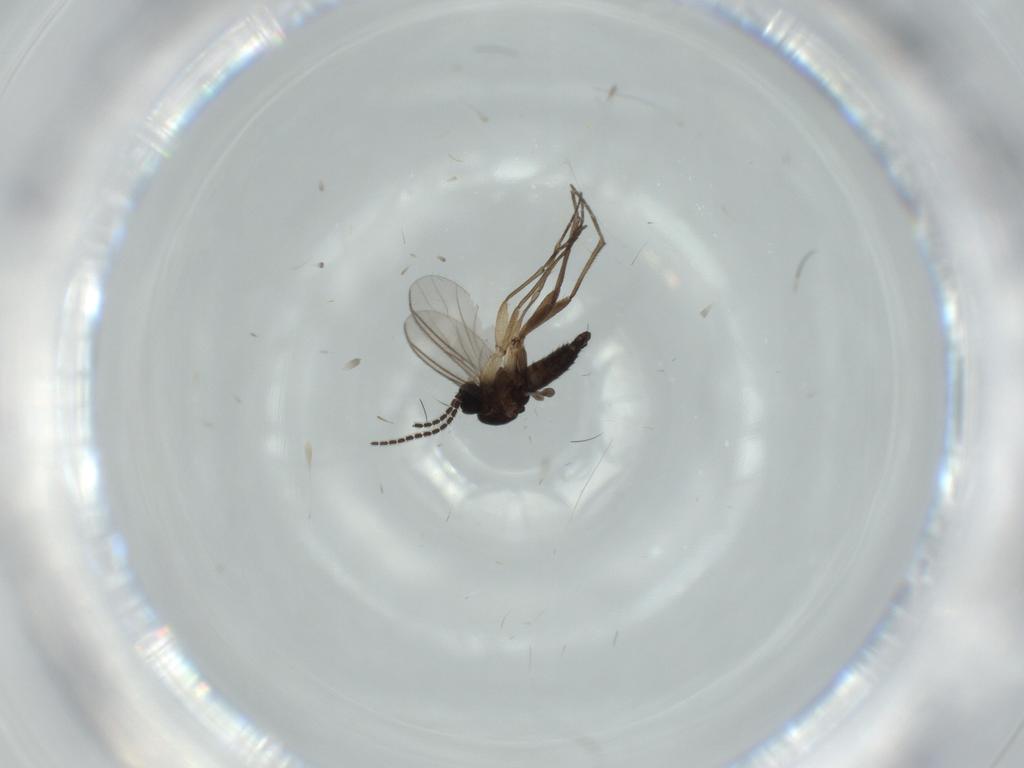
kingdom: Animalia
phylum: Arthropoda
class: Insecta
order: Diptera
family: Sciaridae
